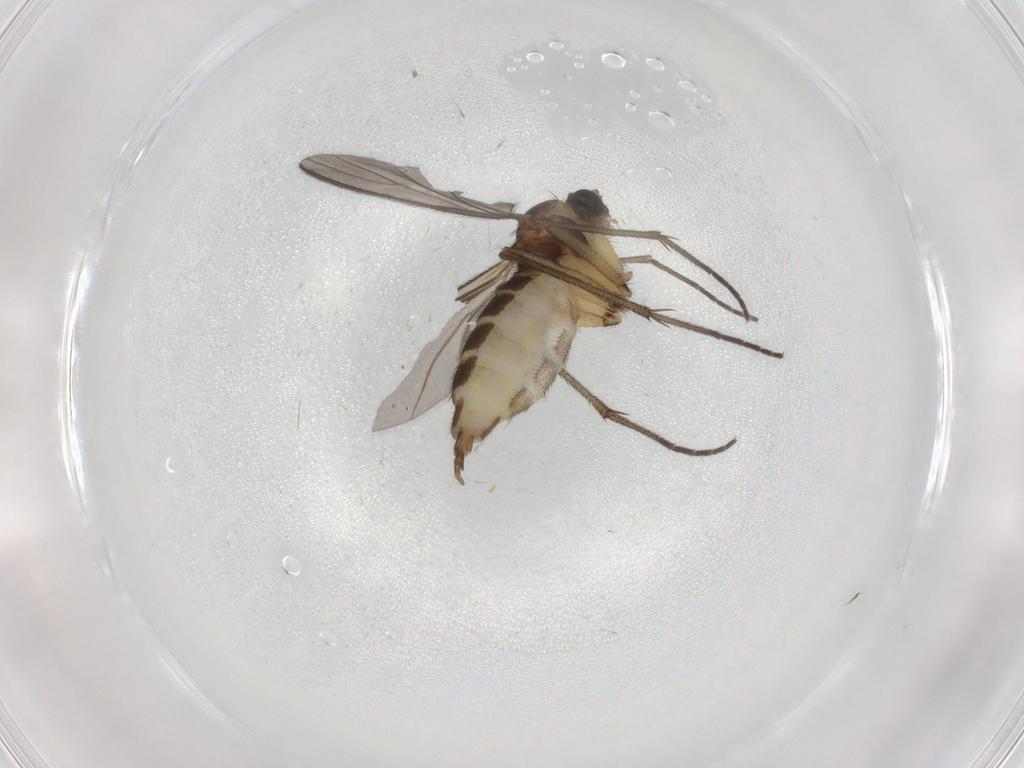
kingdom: Animalia
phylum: Arthropoda
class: Insecta
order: Diptera
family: Sciaridae
